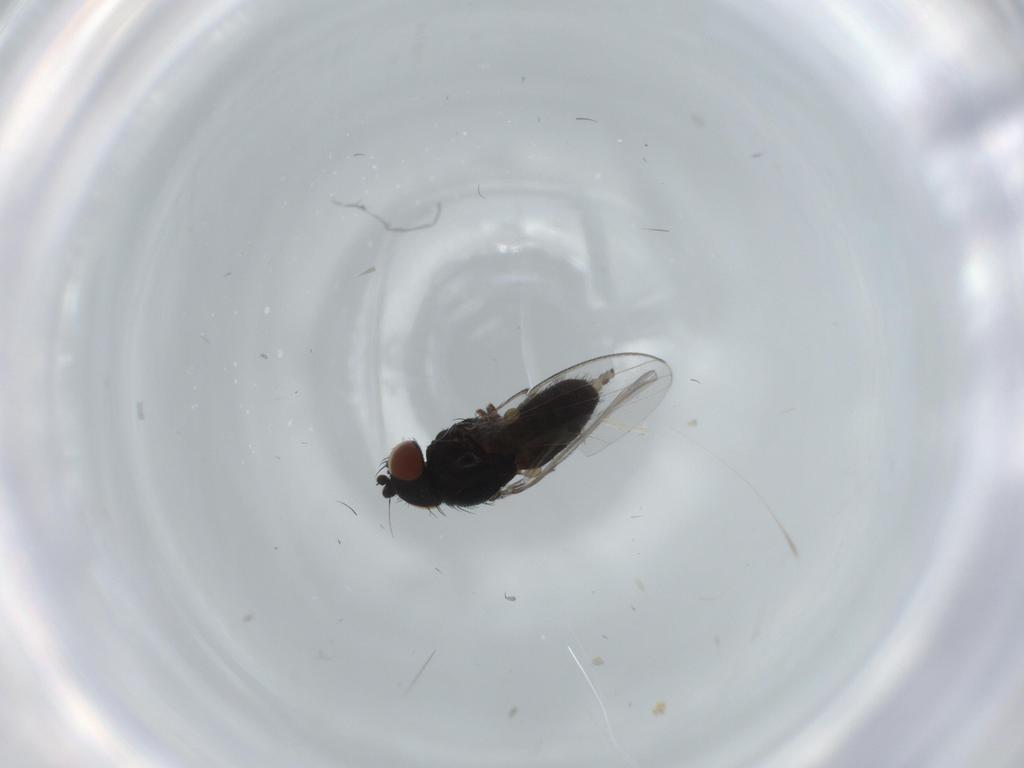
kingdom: Animalia
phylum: Arthropoda
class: Insecta
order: Diptera
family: Milichiidae
